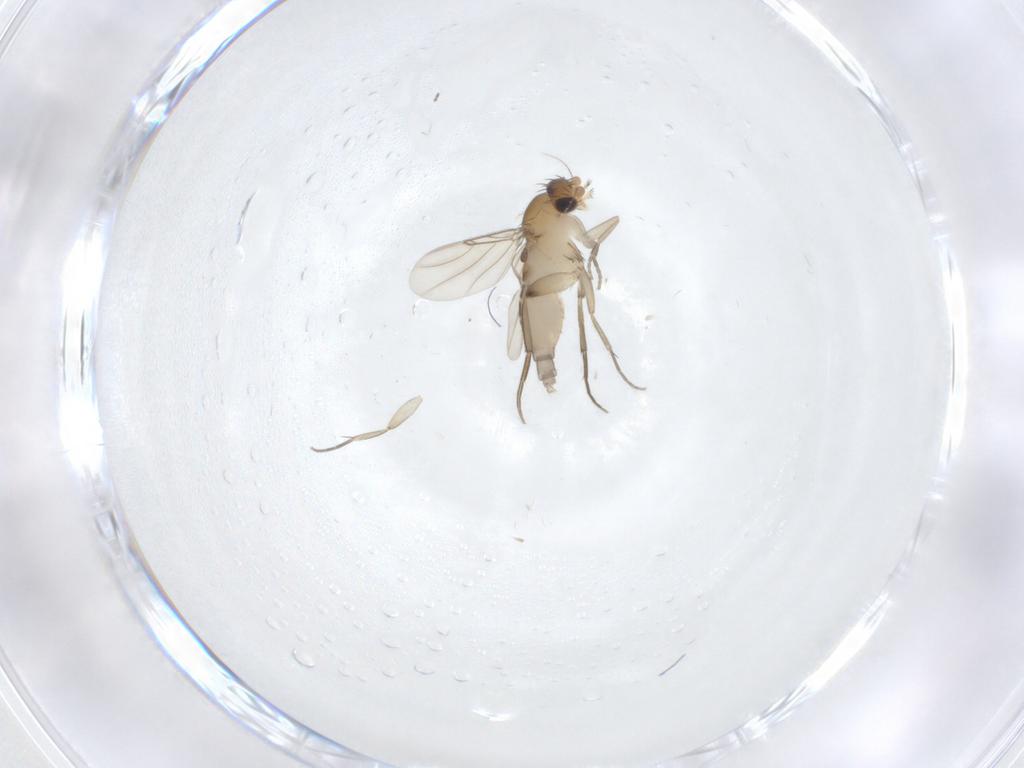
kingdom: Animalia
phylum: Arthropoda
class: Insecta
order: Diptera
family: Phoridae
